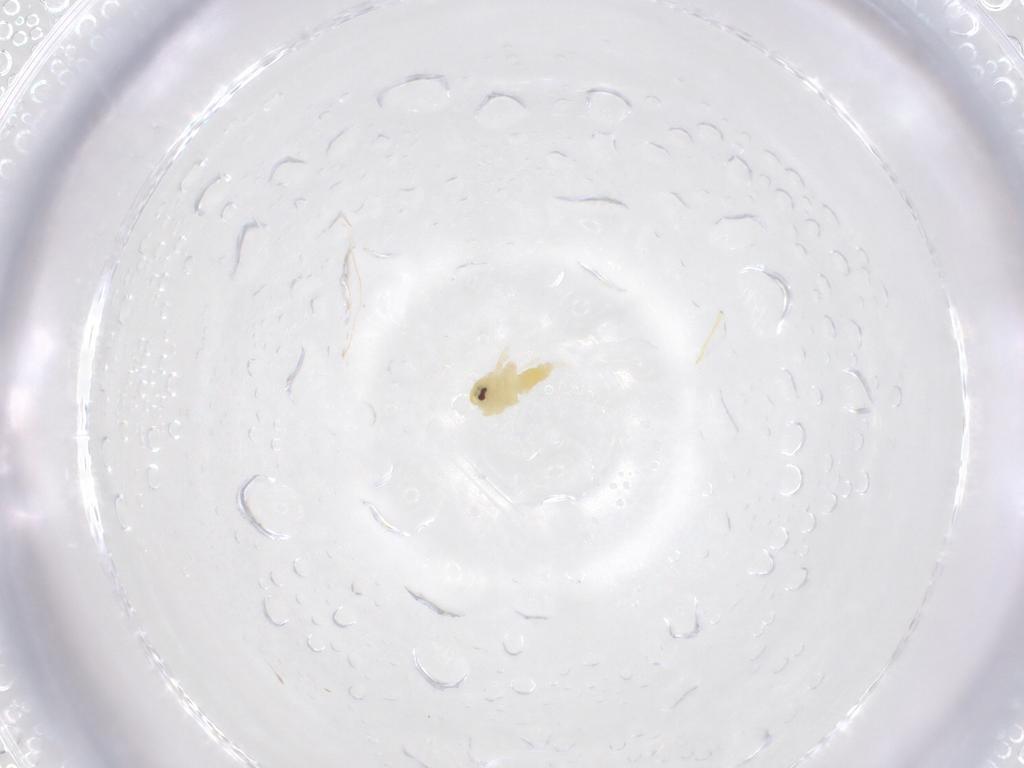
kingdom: Animalia
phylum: Arthropoda
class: Insecta
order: Hemiptera
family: Aleyrodidae
